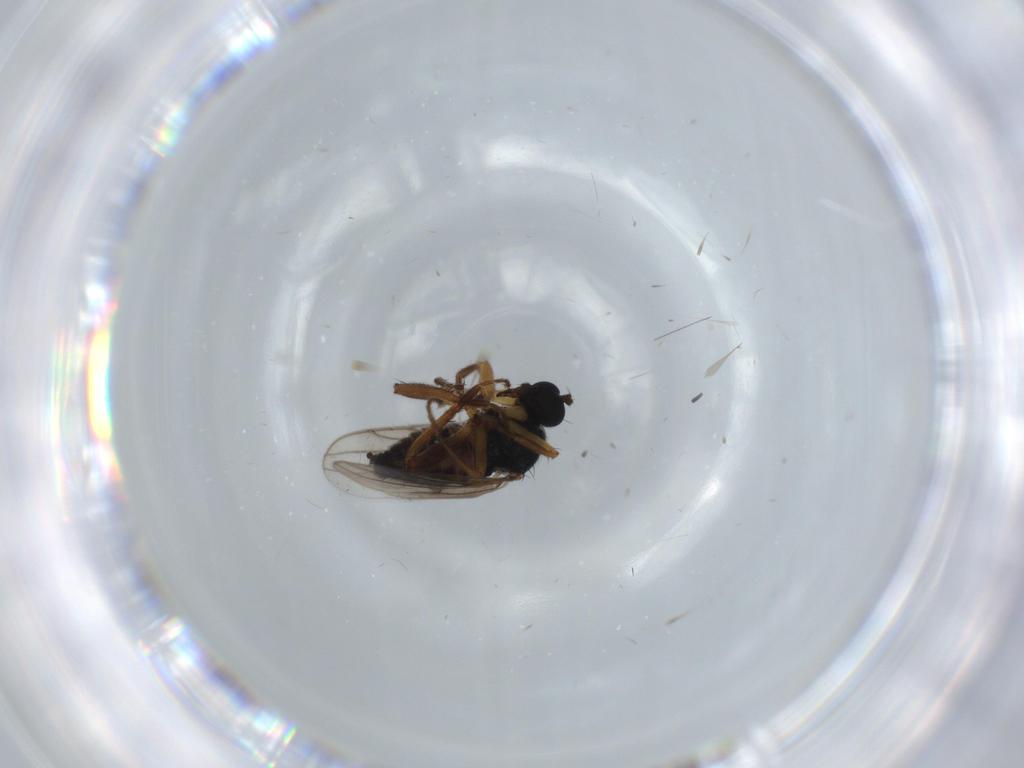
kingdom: Animalia
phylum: Arthropoda
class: Insecta
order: Diptera
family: Hybotidae
